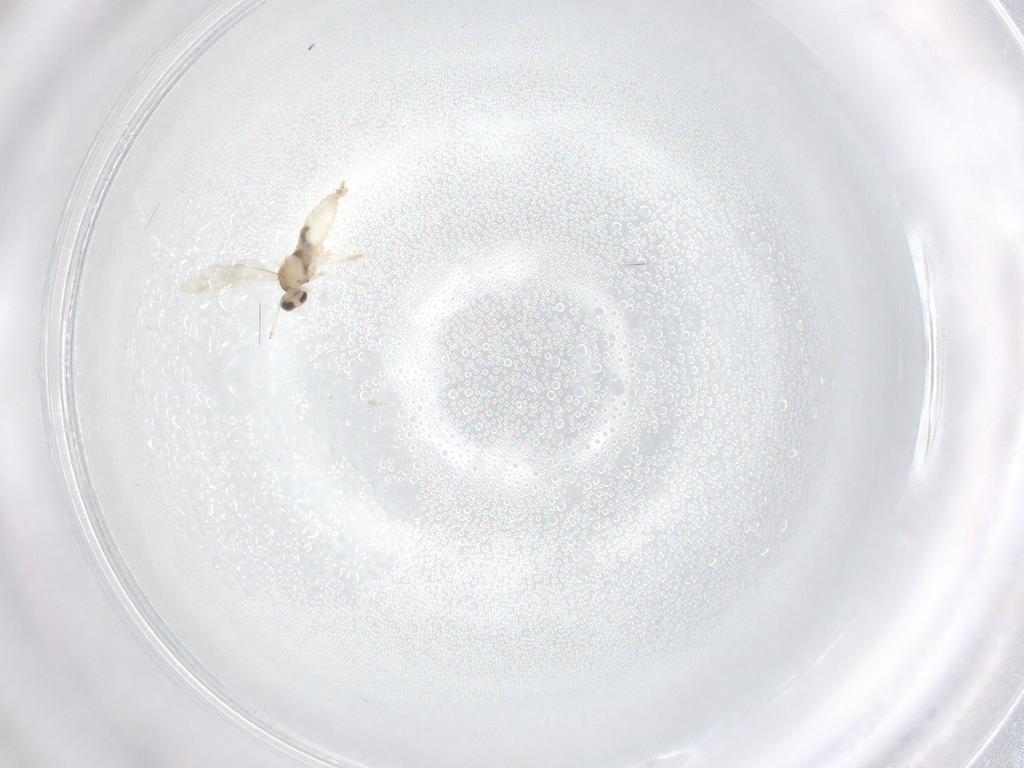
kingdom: Animalia
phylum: Arthropoda
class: Insecta
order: Diptera
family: Cecidomyiidae
